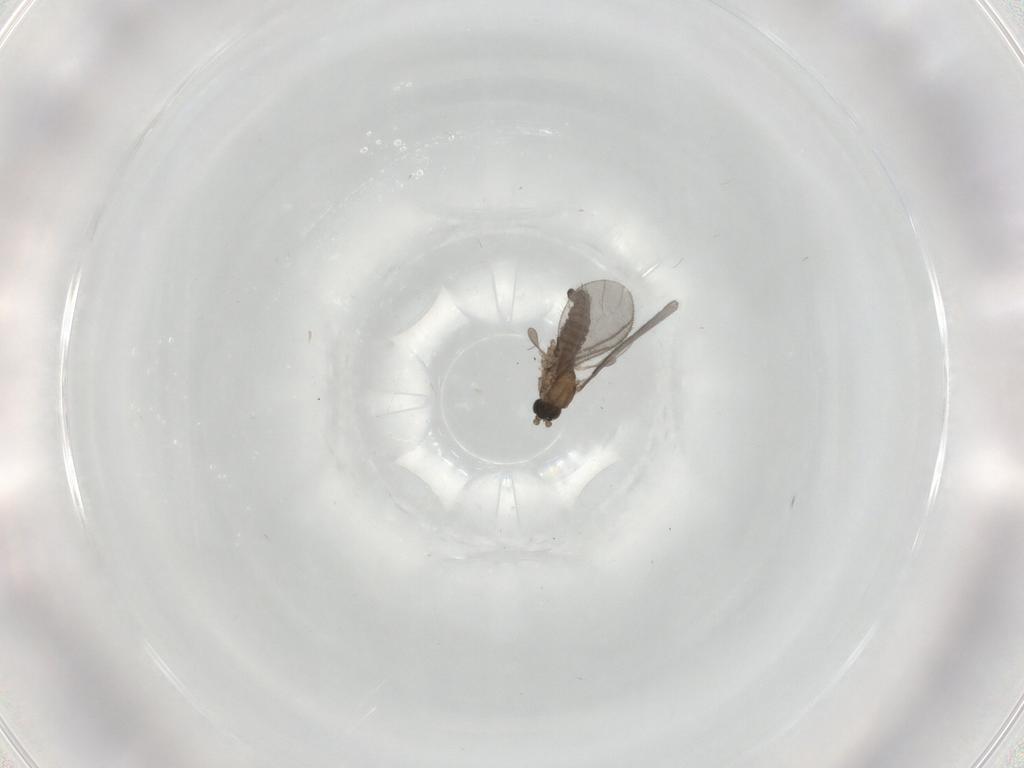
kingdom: Animalia
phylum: Arthropoda
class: Insecta
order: Diptera
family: Sciaridae
